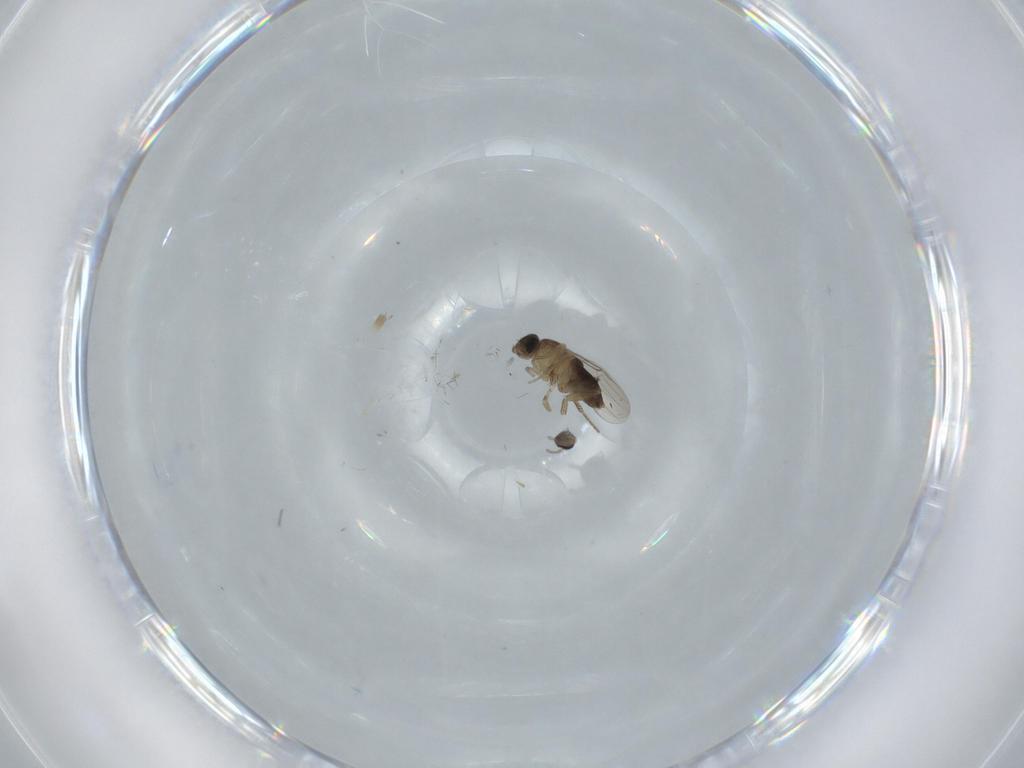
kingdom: Animalia
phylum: Arthropoda
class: Insecta
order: Diptera
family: Phoridae
